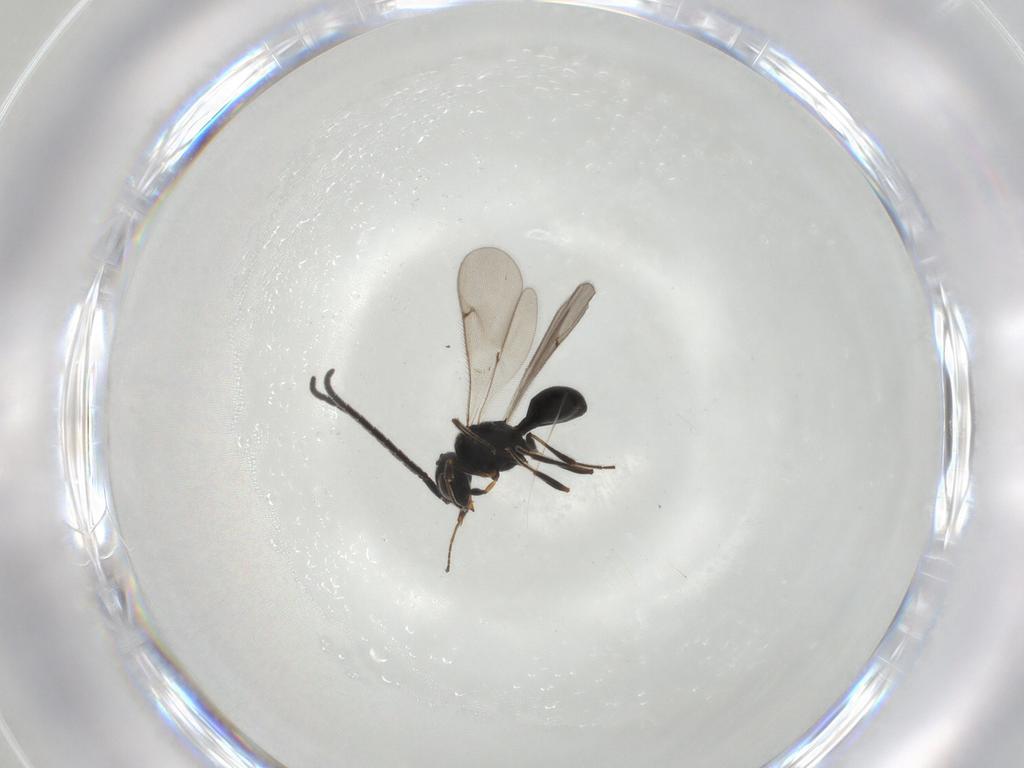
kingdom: Animalia
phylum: Arthropoda
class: Insecta
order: Hymenoptera
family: Scelionidae
